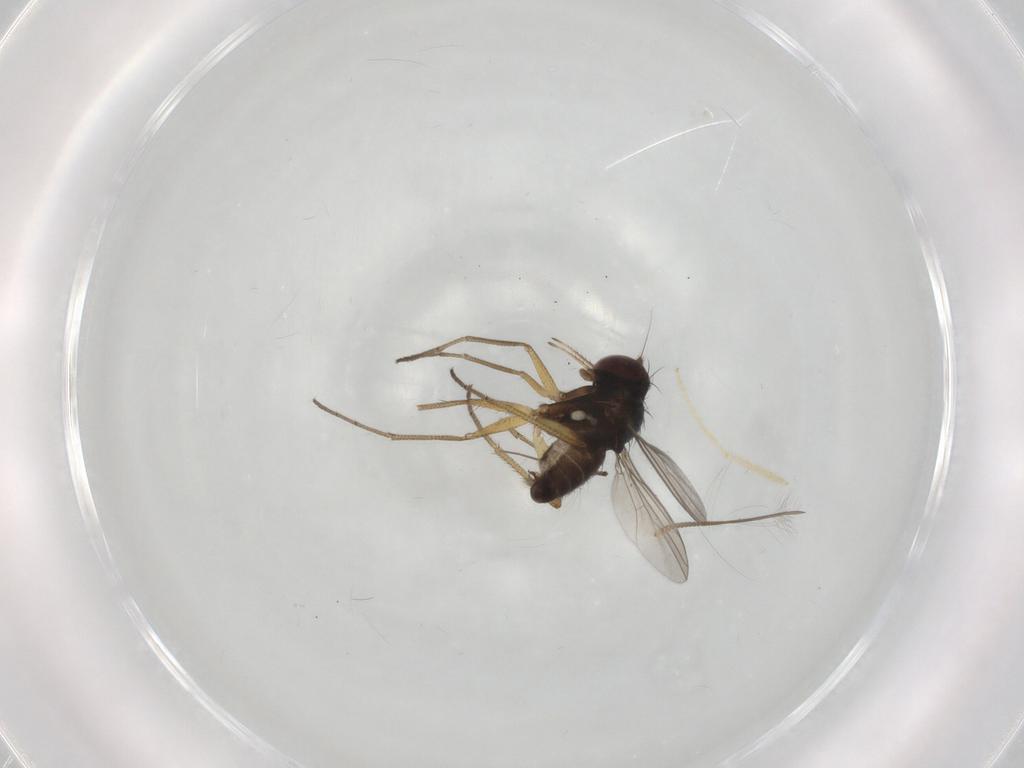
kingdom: Animalia
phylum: Arthropoda
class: Insecta
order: Diptera
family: Dolichopodidae
